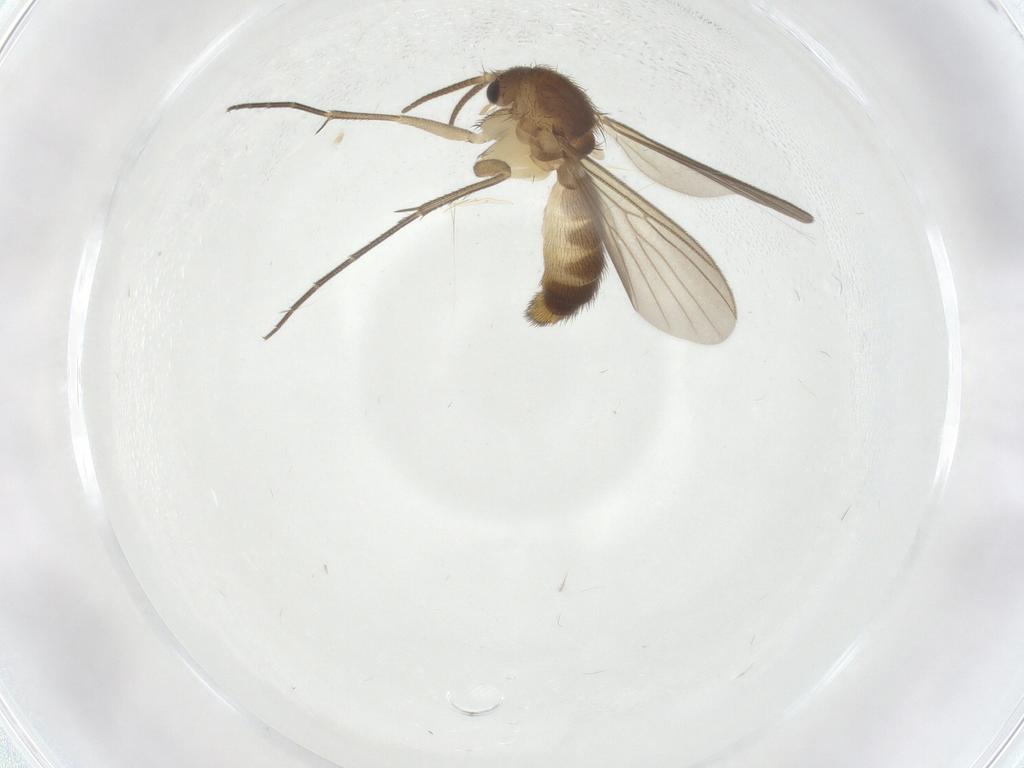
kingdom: Animalia
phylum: Arthropoda
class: Insecta
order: Diptera
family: Mycetophilidae
